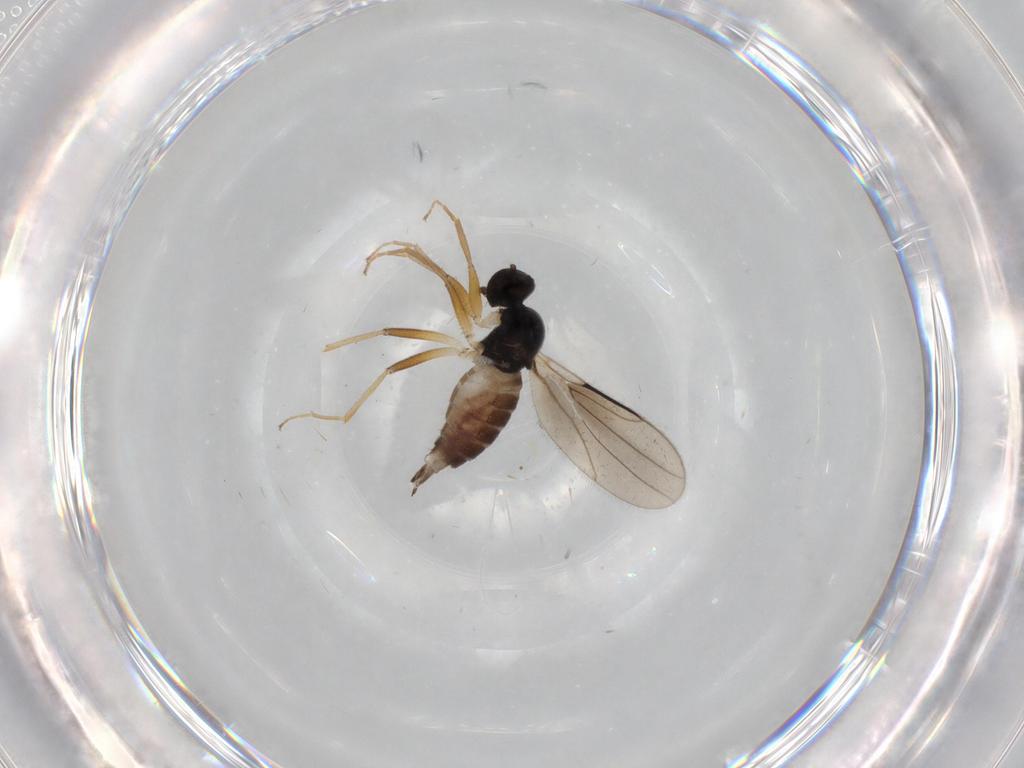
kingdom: Animalia
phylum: Arthropoda
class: Insecta
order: Diptera
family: Hybotidae
